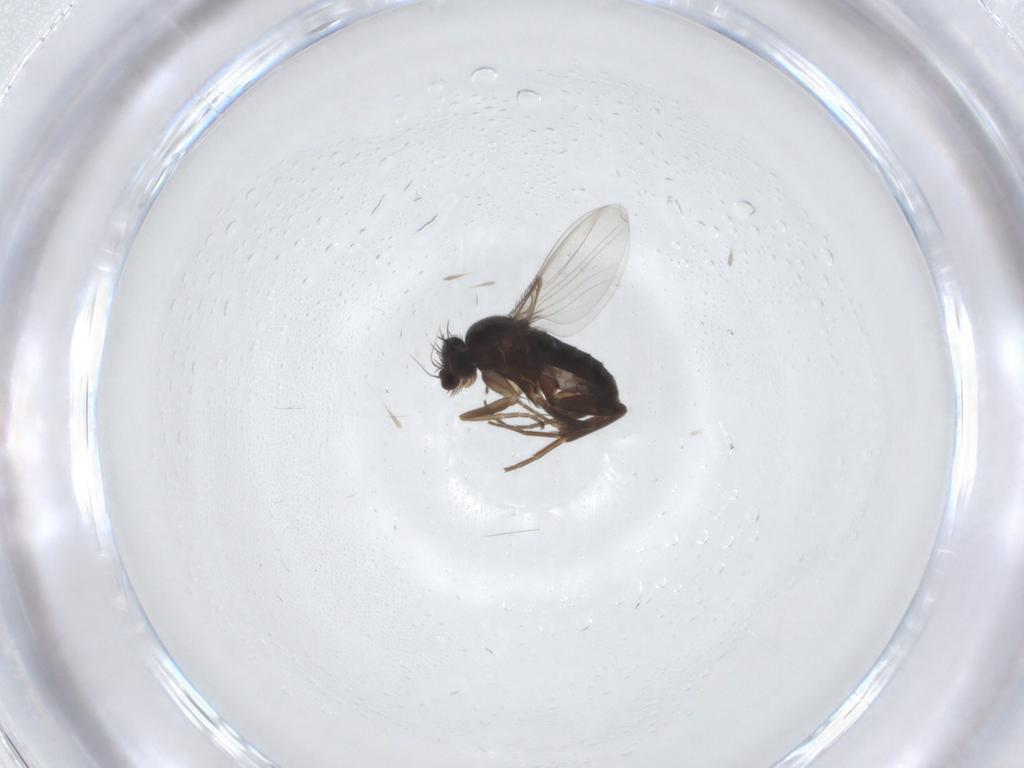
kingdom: Animalia
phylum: Arthropoda
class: Insecta
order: Diptera
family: Phoridae
